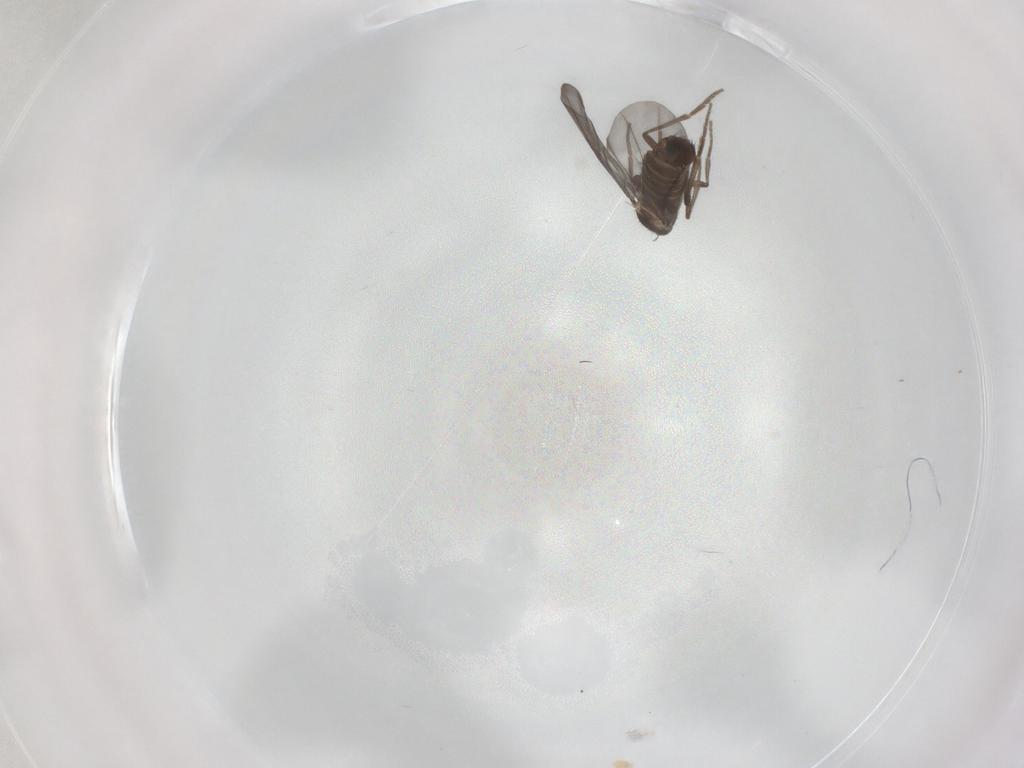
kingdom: Animalia
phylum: Arthropoda
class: Insecta
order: Diptera
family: Phoridae
